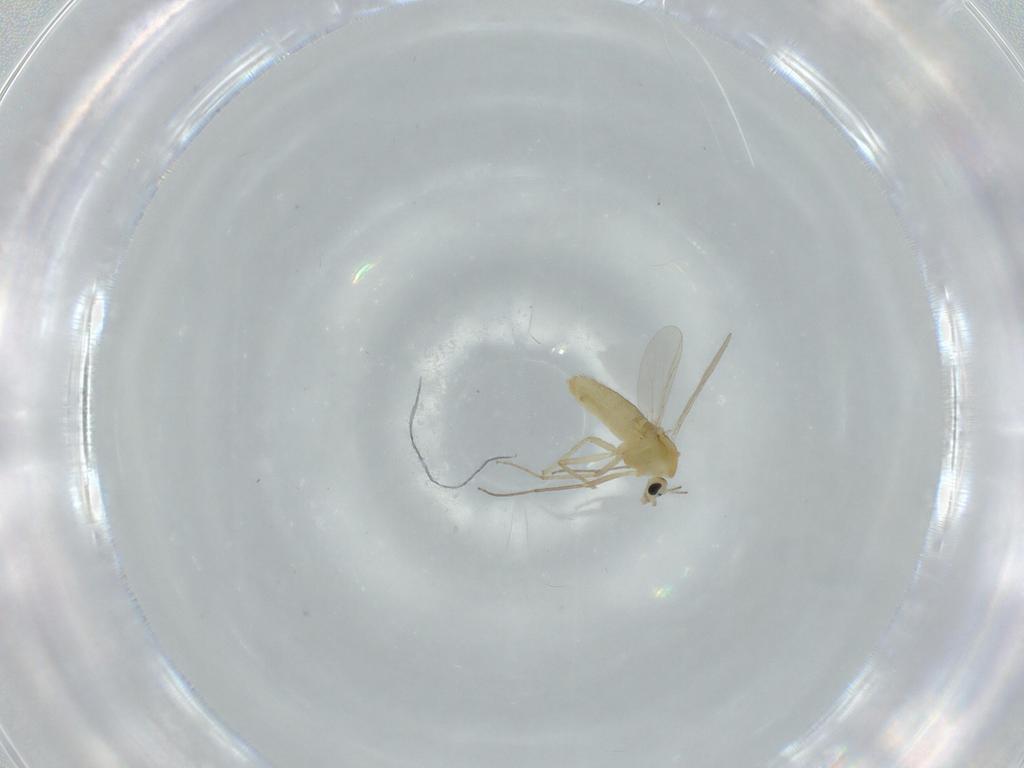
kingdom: Animalia
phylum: Arthropoda
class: Insecta
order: Diptera
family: Chironomidae
